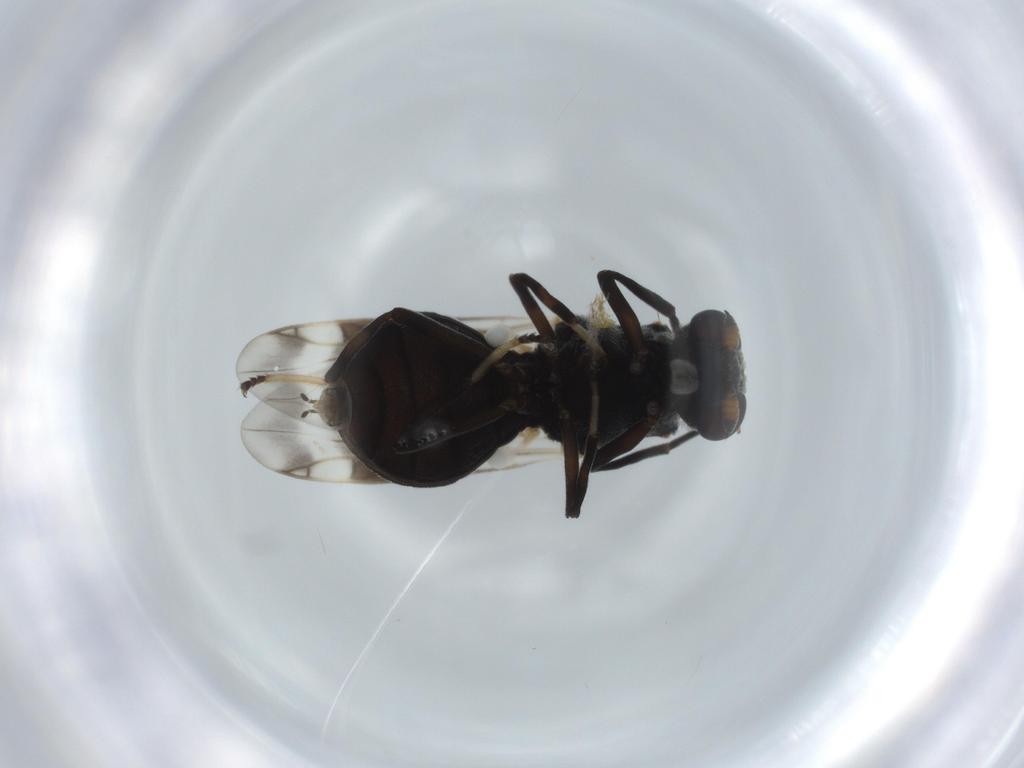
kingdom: Animalia
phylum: Arthropoda
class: Insecta
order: Diptera
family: Stratiomyidae
